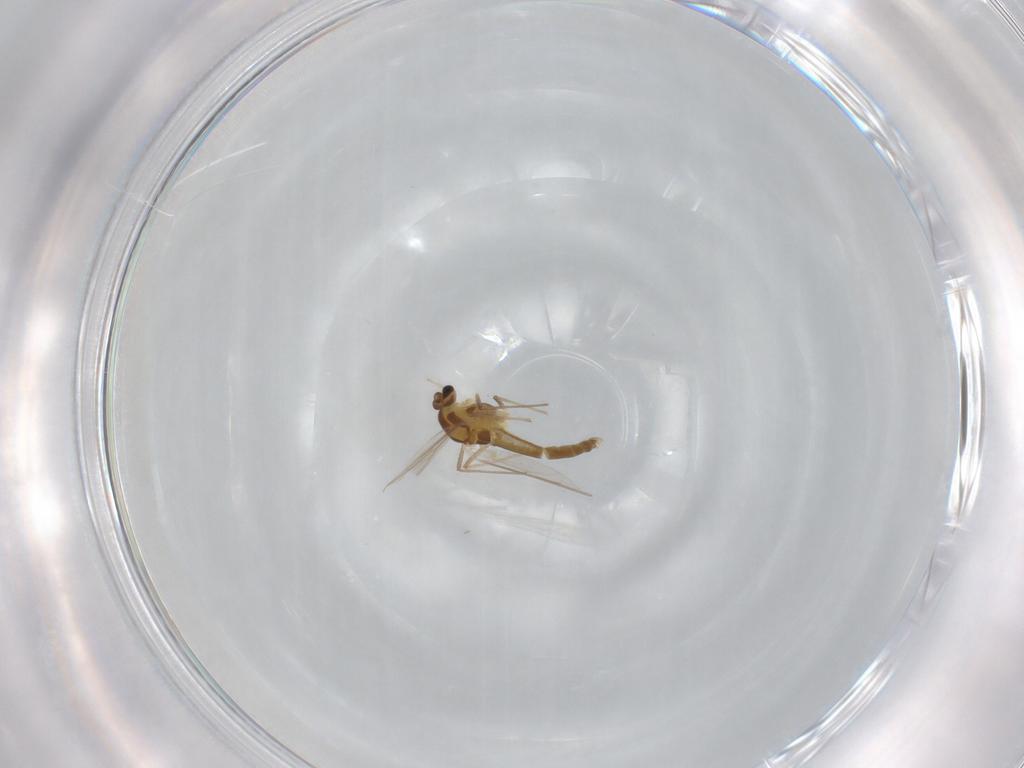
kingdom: Animalia
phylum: Arthropoda
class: Insecta
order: Diptera
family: Chironomidae
